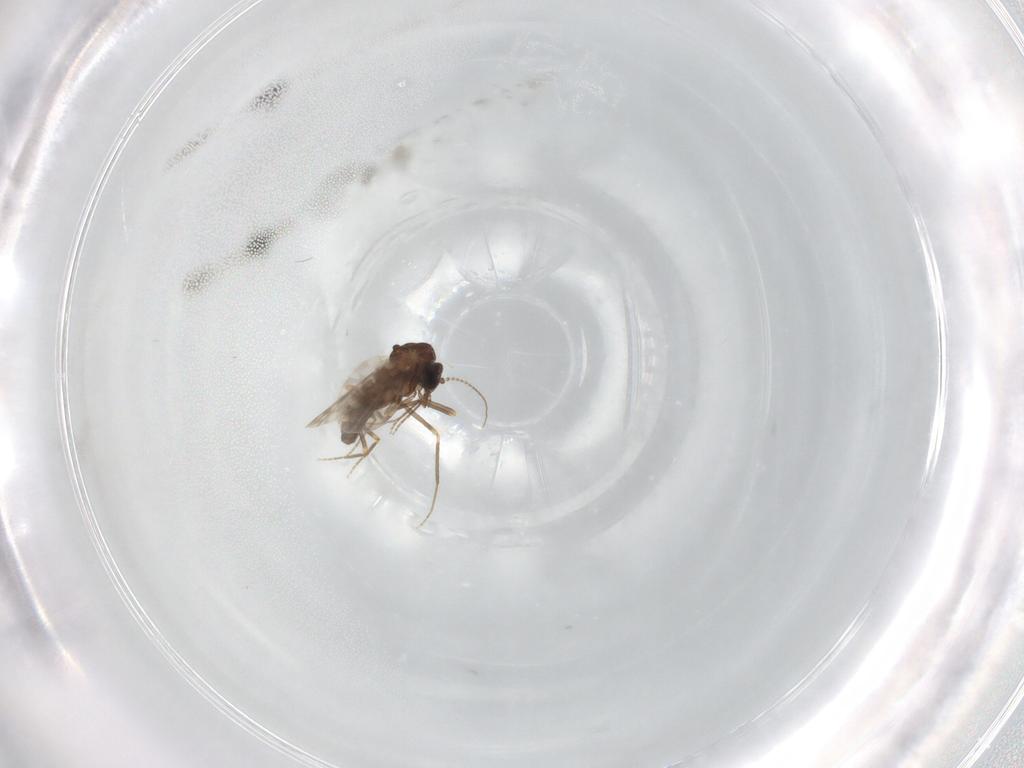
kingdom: Animalia
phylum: Arthropoda
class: Insecta
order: Diptera
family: Ceratopogonidae
